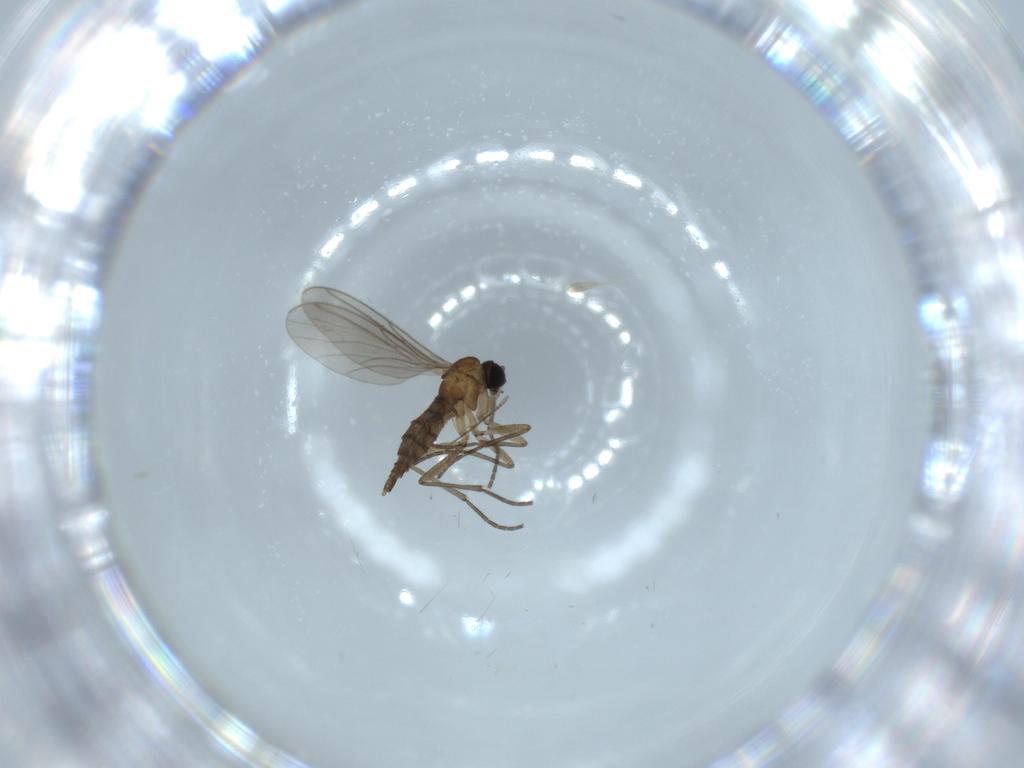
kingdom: Animalia
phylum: Arthropoda
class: Insecta
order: Diptera
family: Sciaridae
